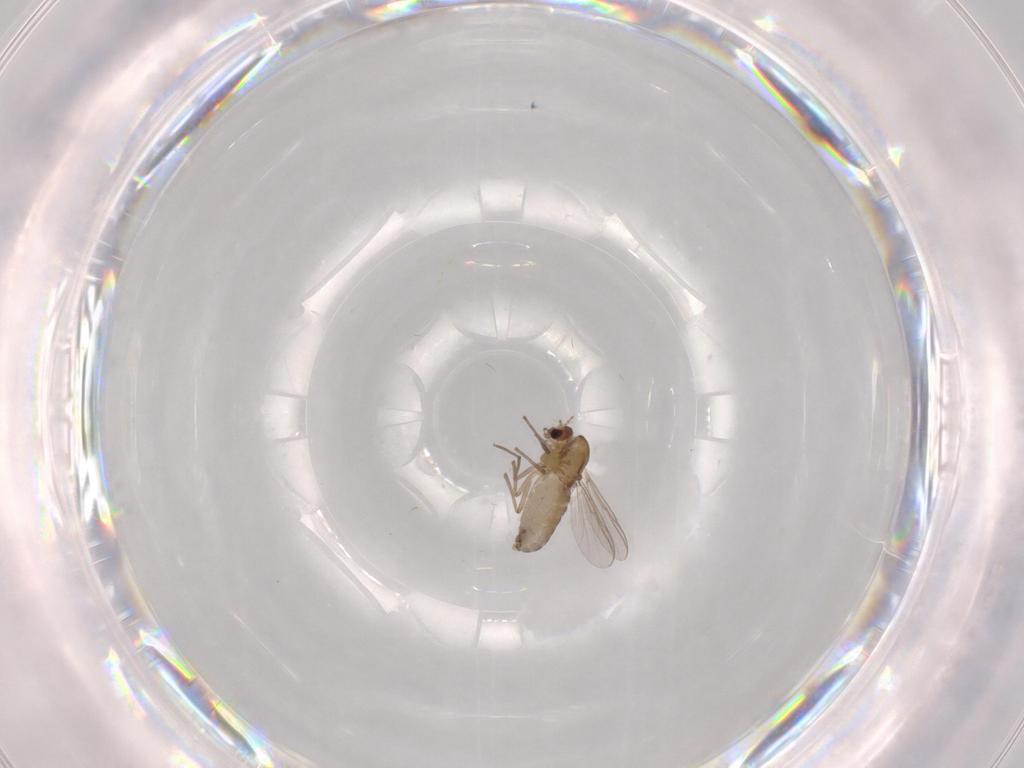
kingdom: Animalia
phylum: Arthropoda
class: Insecta
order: Diptera
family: Chironomidae
